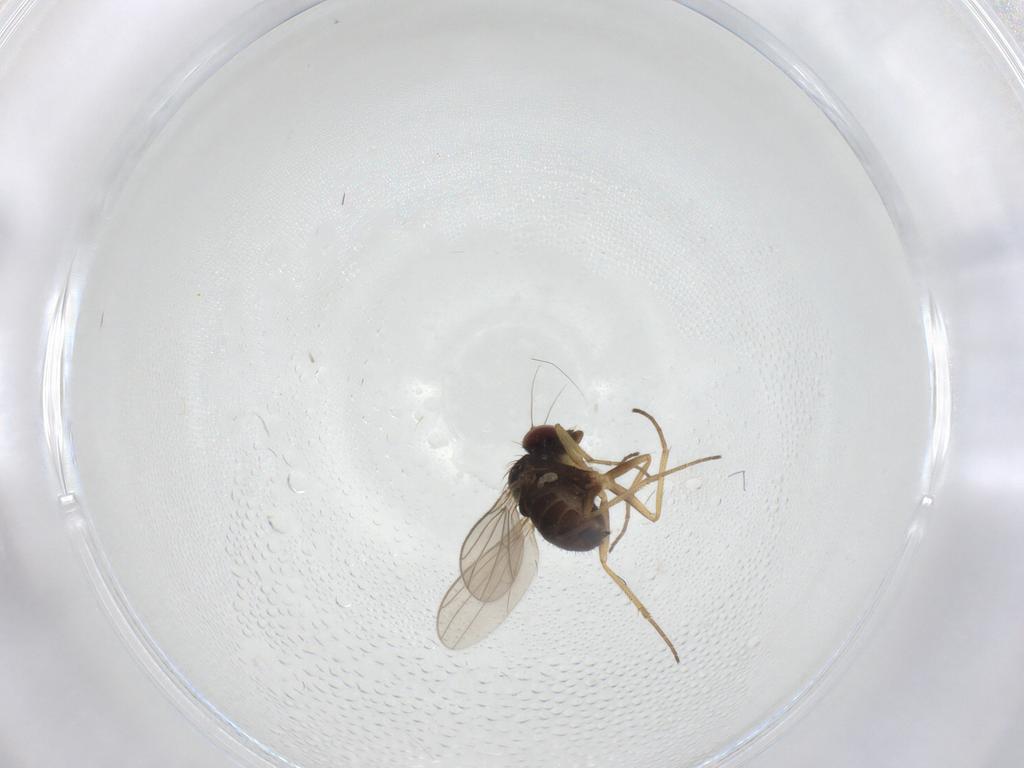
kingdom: Animalia
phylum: Arthropoda
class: Insecta
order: Diptera
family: Dolichopodidae
